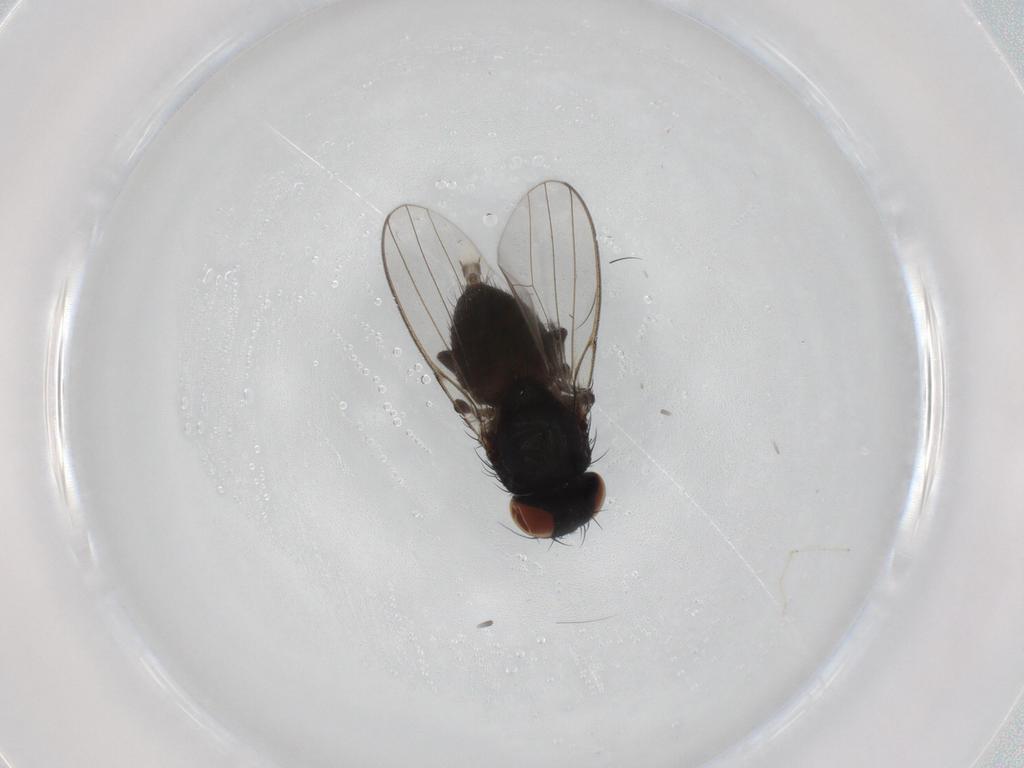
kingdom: Animalia
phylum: Arthropoda
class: Insecta
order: Diptera
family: Milichiidae
